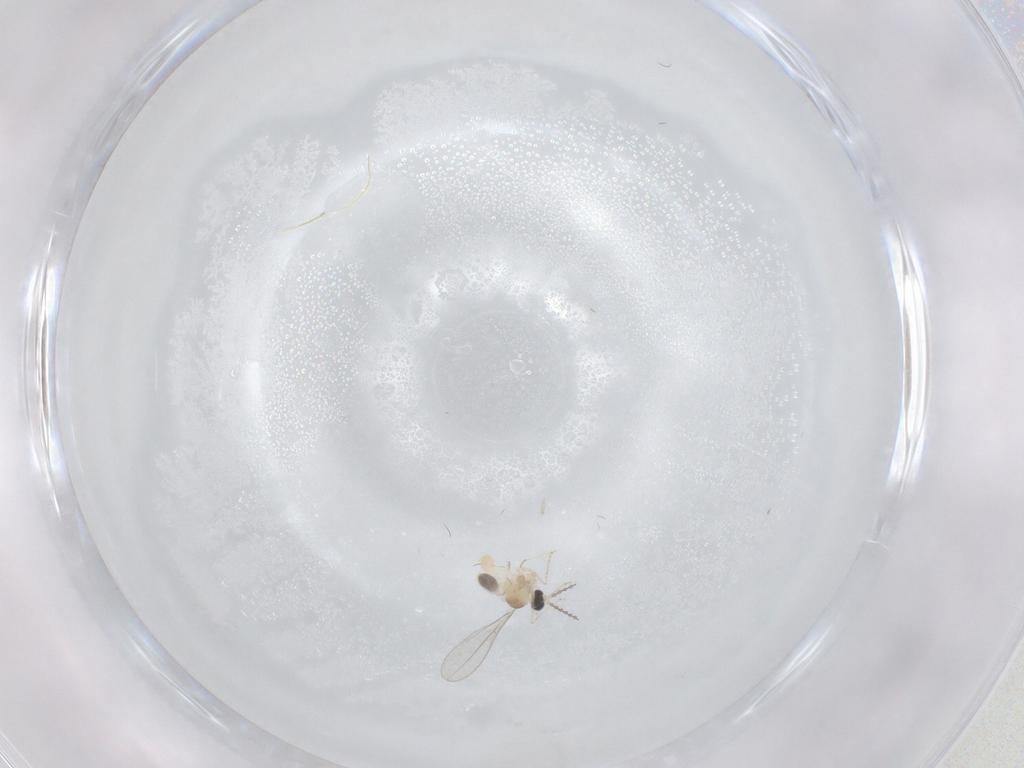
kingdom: Animalia
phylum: Arthropoda
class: Insecta
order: Diptera
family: Cecidomyiidae
